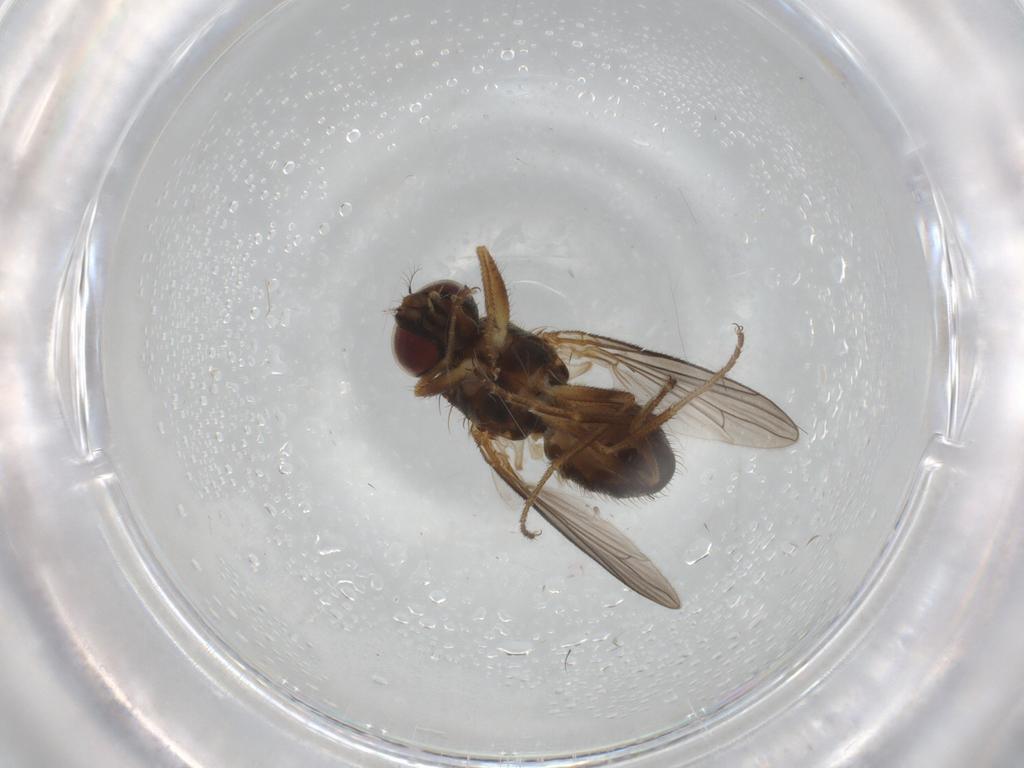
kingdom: Animalia
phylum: Arthropoda
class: Insecta
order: Diptera
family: Muscidae
